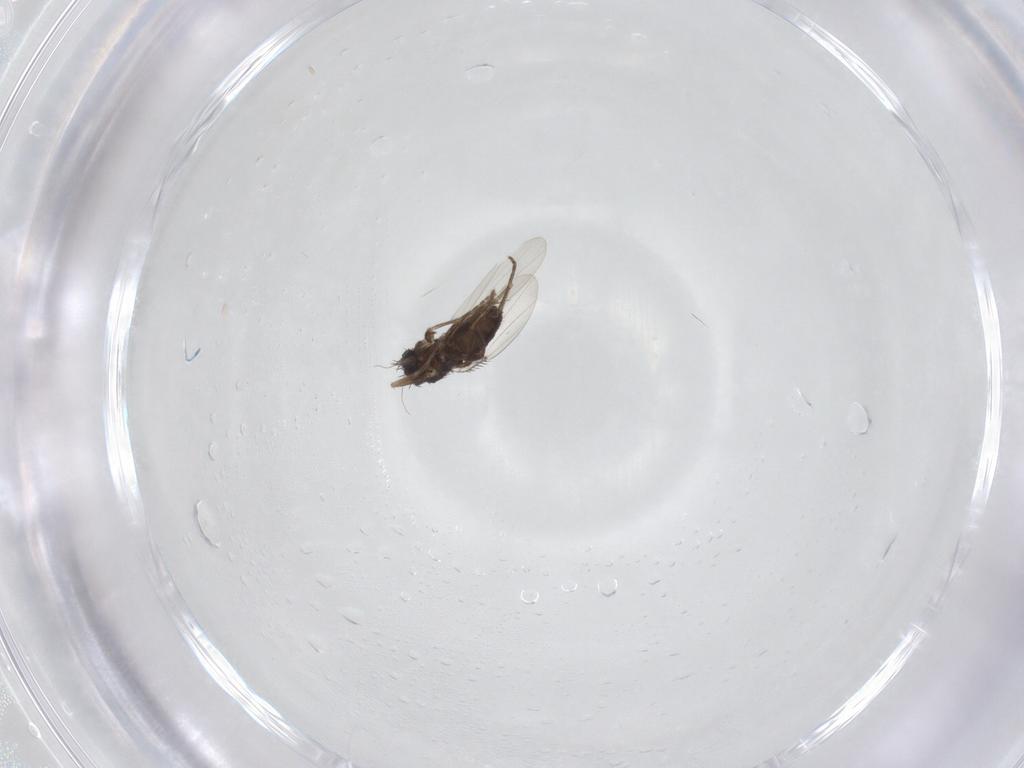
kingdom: Animalia
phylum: Arthropoda
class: Insecta
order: Diptera
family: Phoridae
